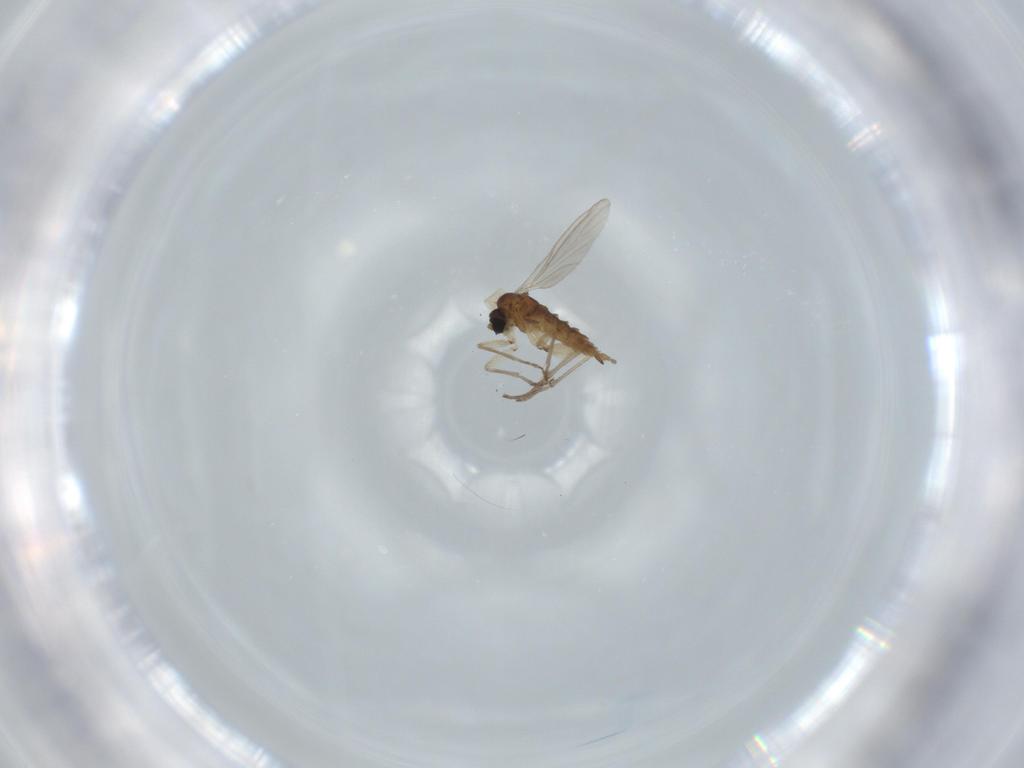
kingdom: Animalia
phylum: Arthropoda
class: Insecta
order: Diptera
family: Sciaridae
